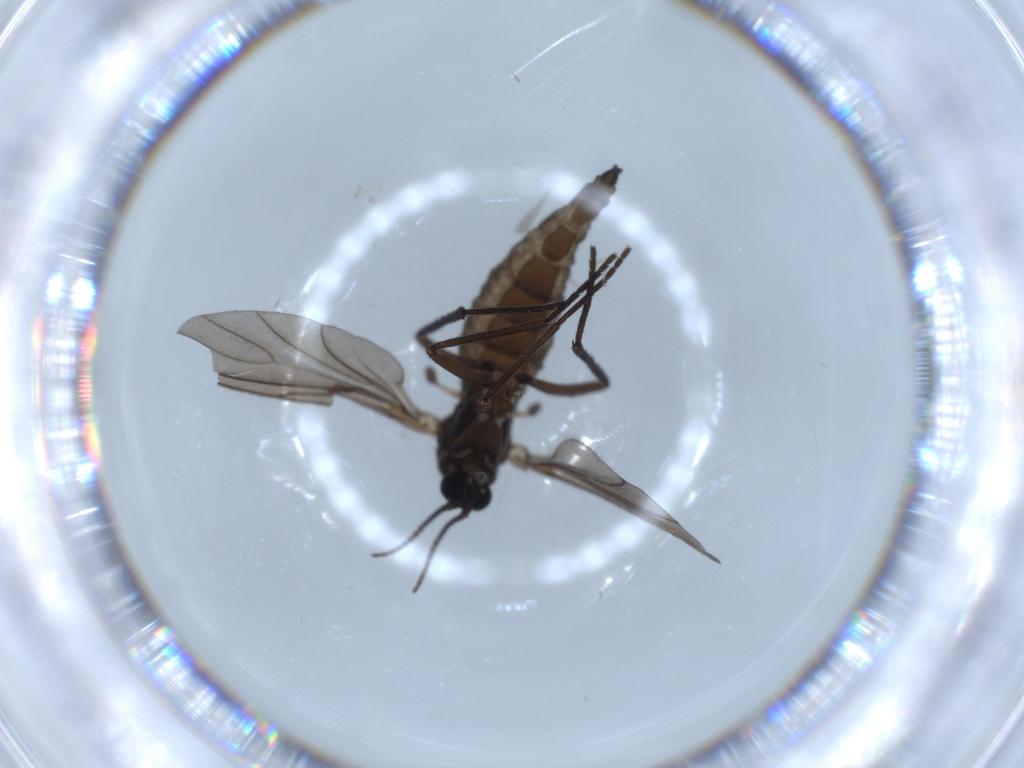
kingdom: Animalia
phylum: Arthropoda
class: Insecta
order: Diptera
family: Sciaridae
